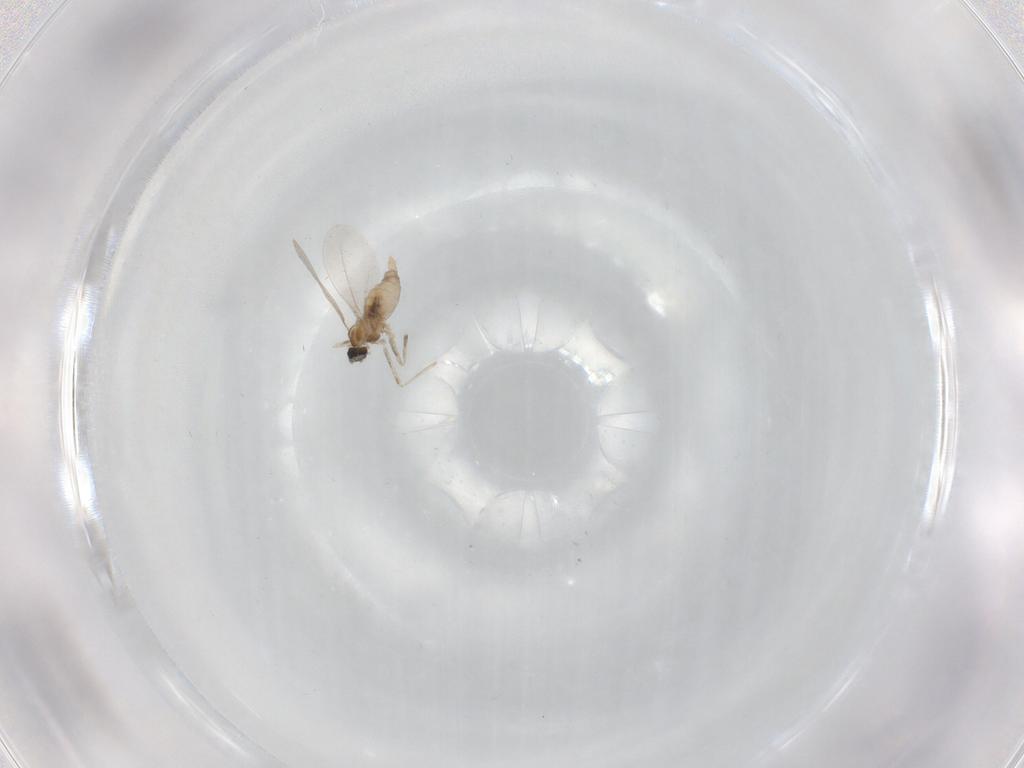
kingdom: Animalia
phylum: Arthropoda
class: Insecta
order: Diptera
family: Cecidomyiidae
